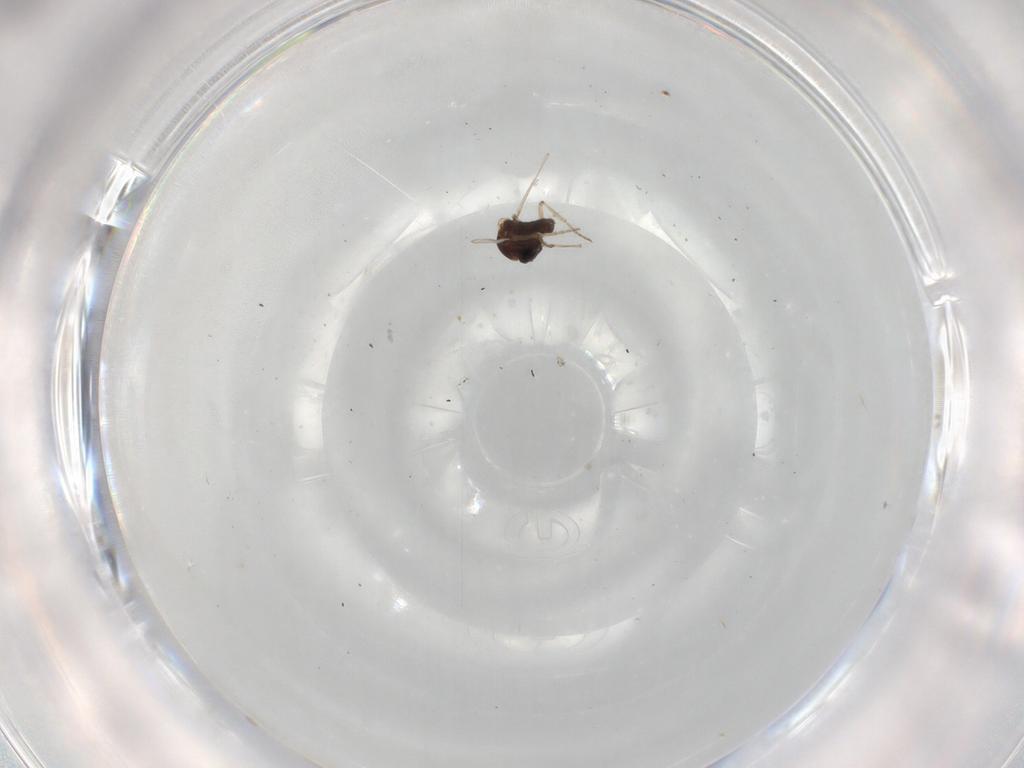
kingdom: Animalia
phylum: Arthropoda
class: Insecta
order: Diptera
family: Ceratopogonidae
